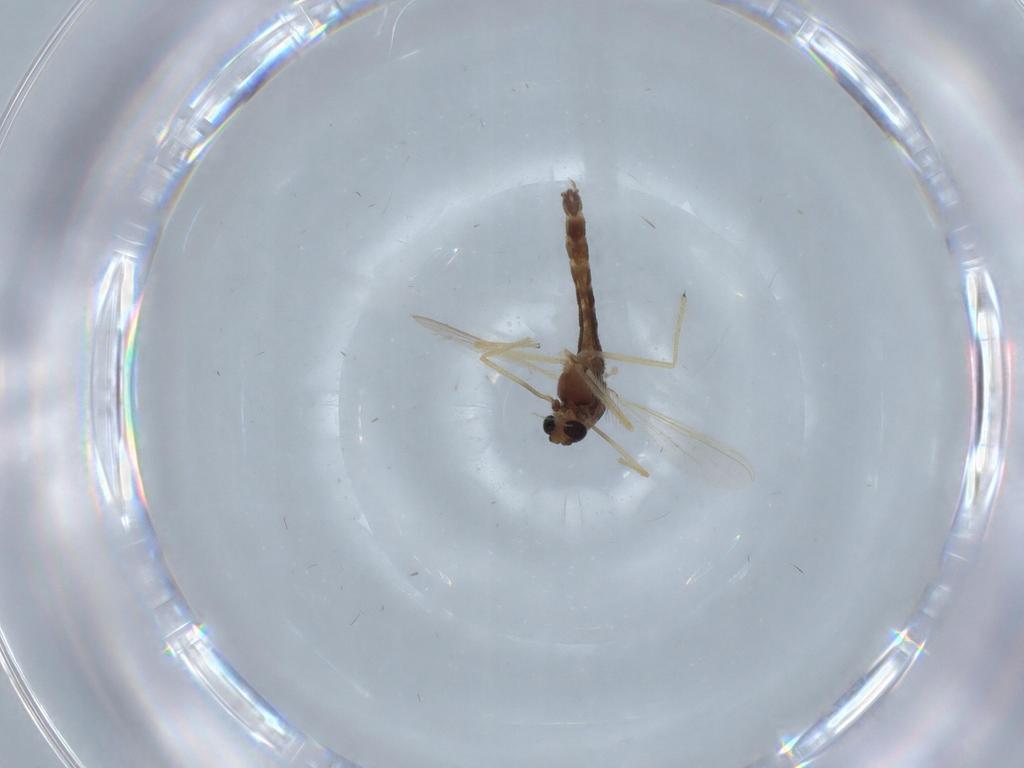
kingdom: Animalia
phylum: Arthropoda
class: Insecta
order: Diptera
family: Chironomidae
